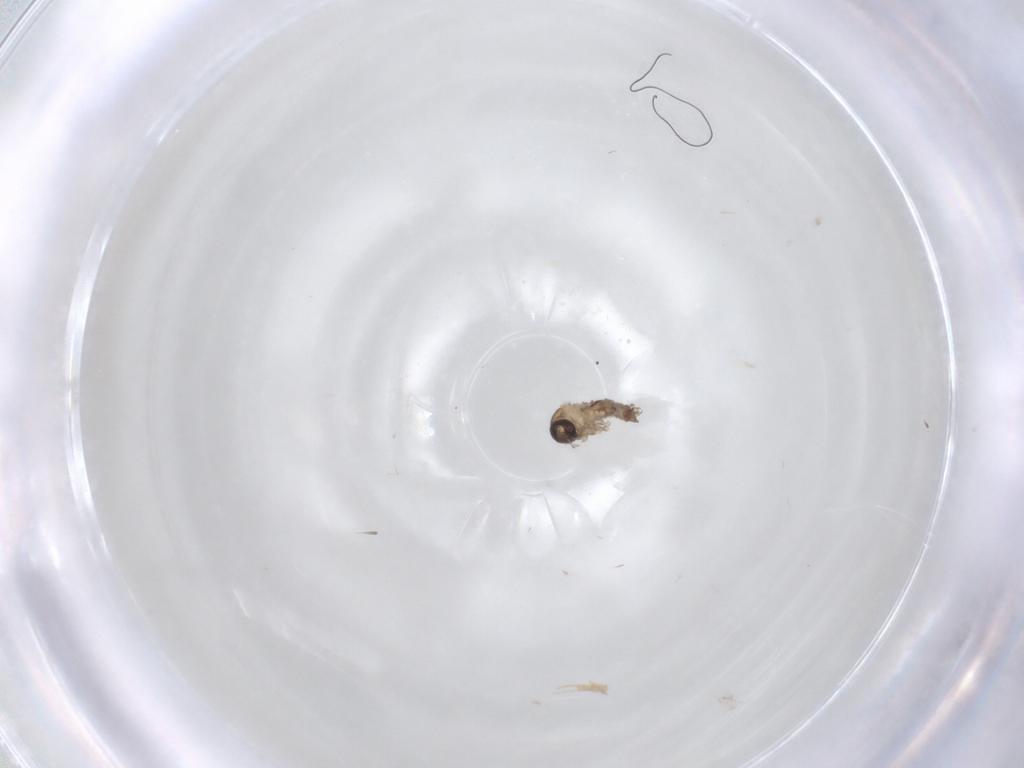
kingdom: Animalia
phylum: Arthropoda
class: Insecta
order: Diptera
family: Psychodidae
